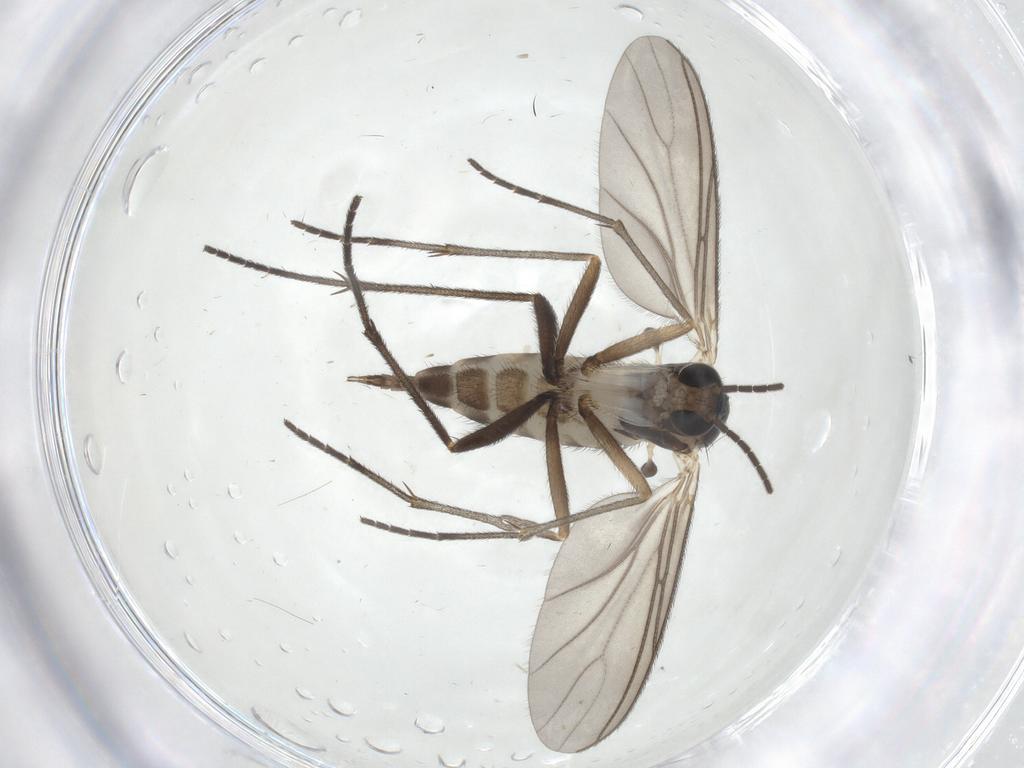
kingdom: Animalia
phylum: Arthropoda
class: Insecta
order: Diptera
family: Sciaridae
